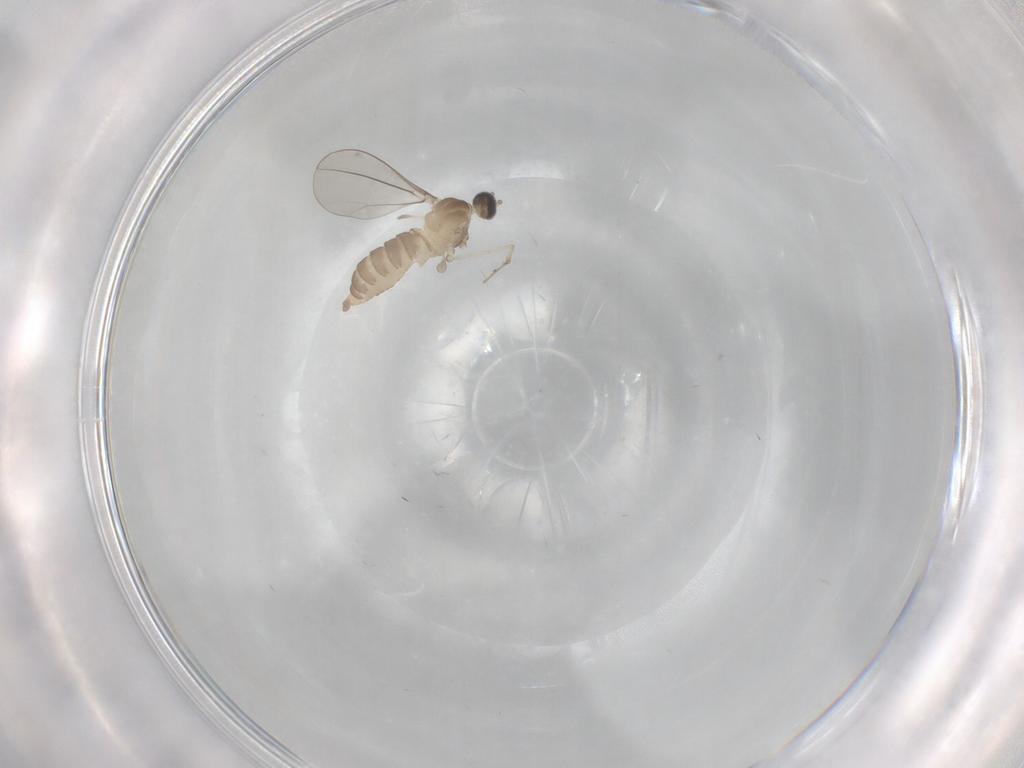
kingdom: Animalia
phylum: Arthropoda
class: Insecta
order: Diptera
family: Cecidomyiidae
